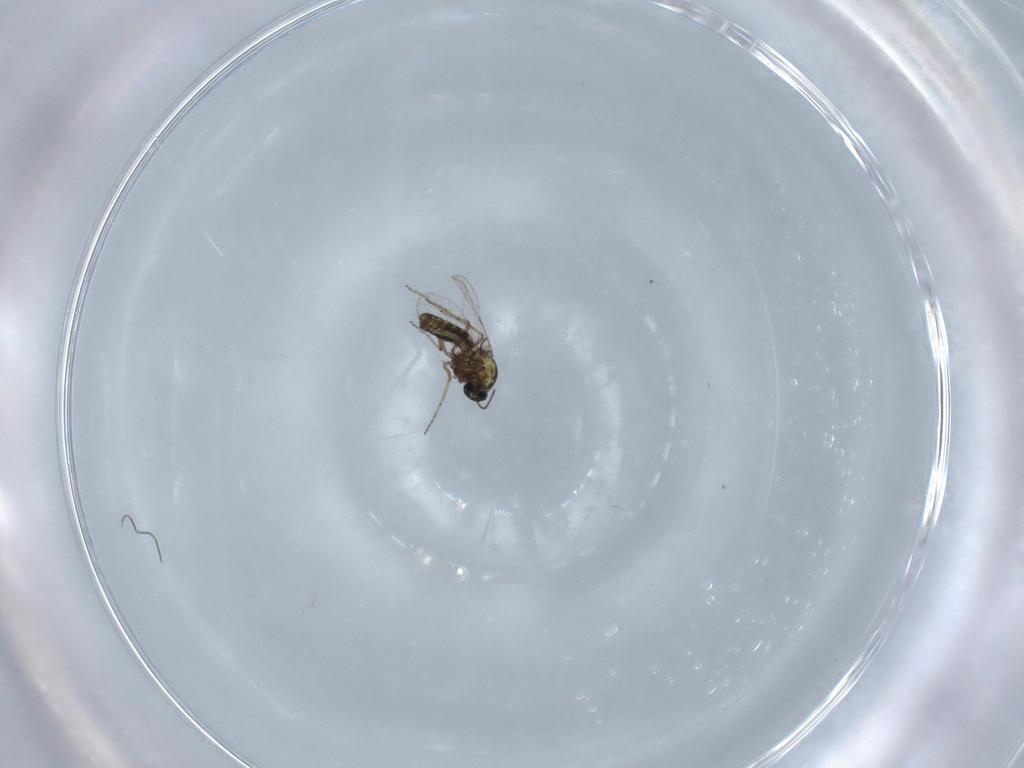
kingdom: Animalia
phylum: Arthropoda
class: Insecta
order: Diptera
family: Ceratopogonidae
